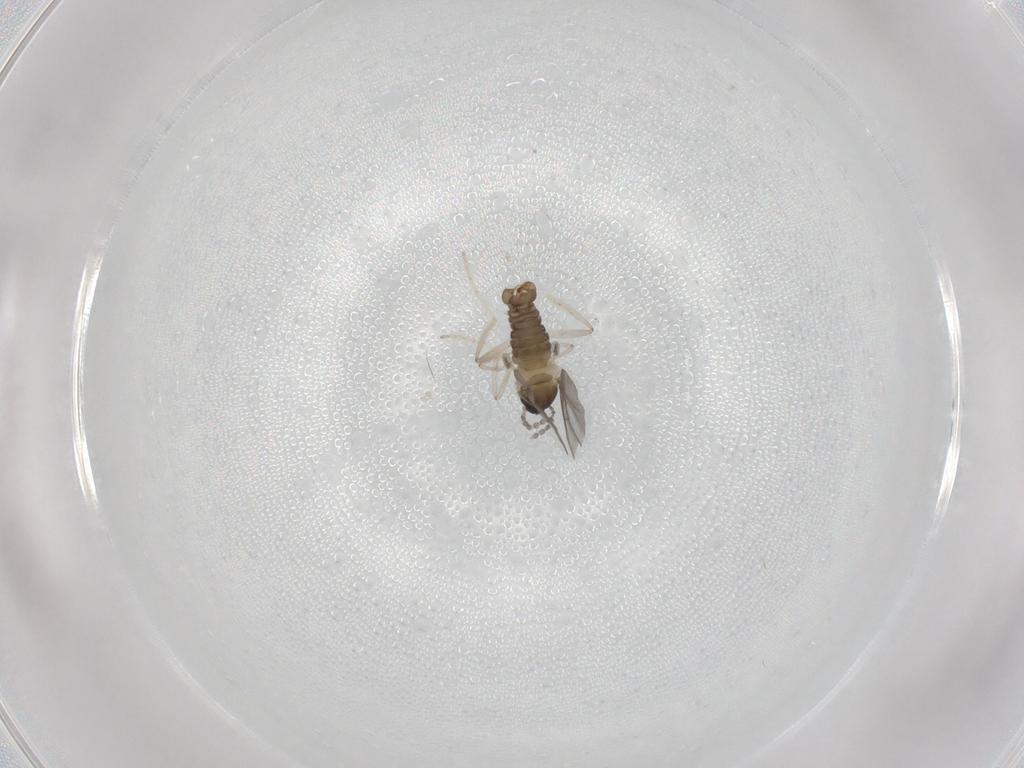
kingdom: Animalia
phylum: Arthropoda
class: Insecta
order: Diptera
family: Cecidomyiidae
